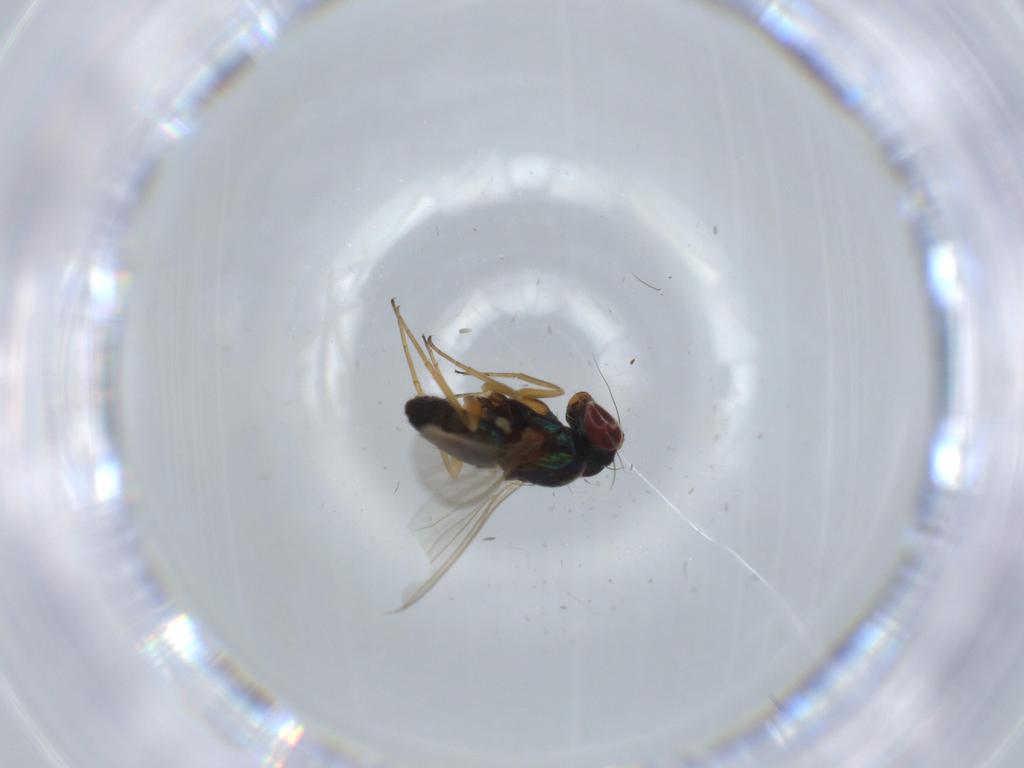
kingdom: Animalia
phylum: Arthropoda
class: Insecta
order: Diptera
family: Dolichopodidae
